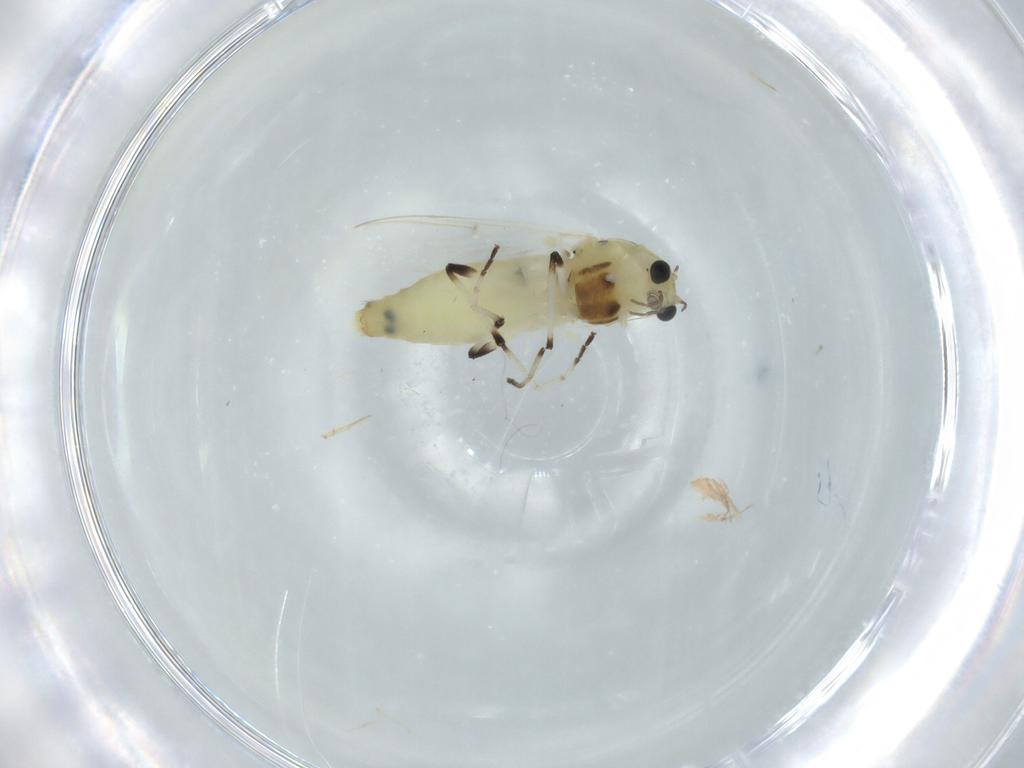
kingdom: Animalia
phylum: Arthropoda
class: Insecta
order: Diptera
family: Chironomidae
